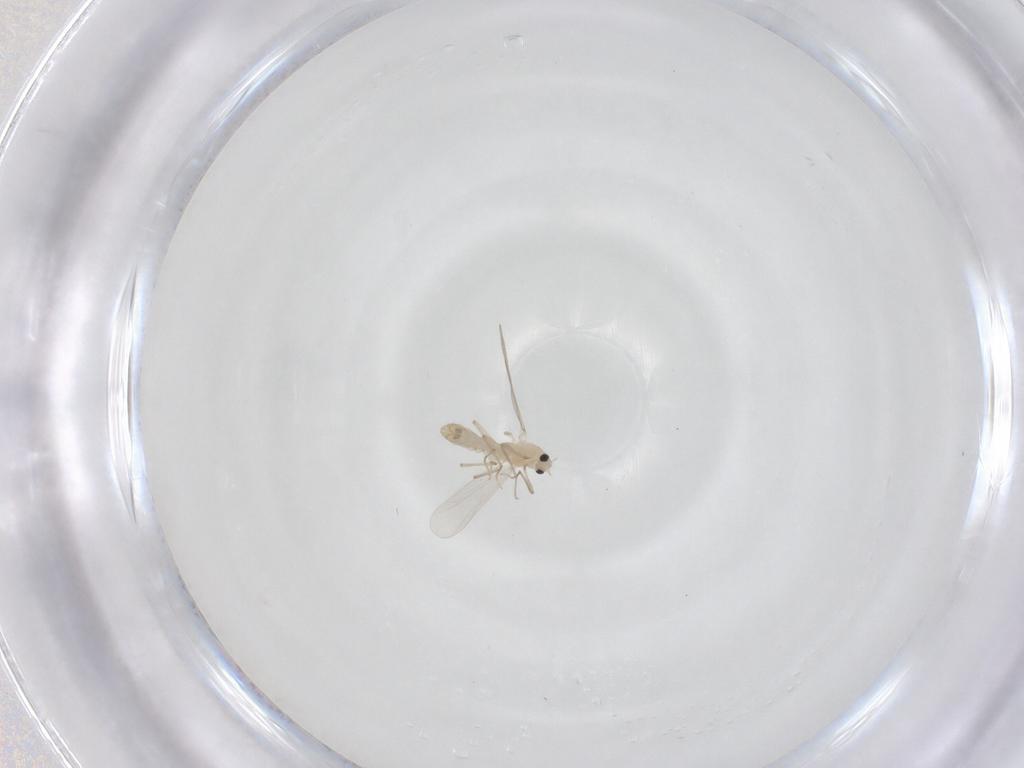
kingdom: Animalia
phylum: Arthropoda
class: Insecta
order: Diptera
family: Chironomidae
